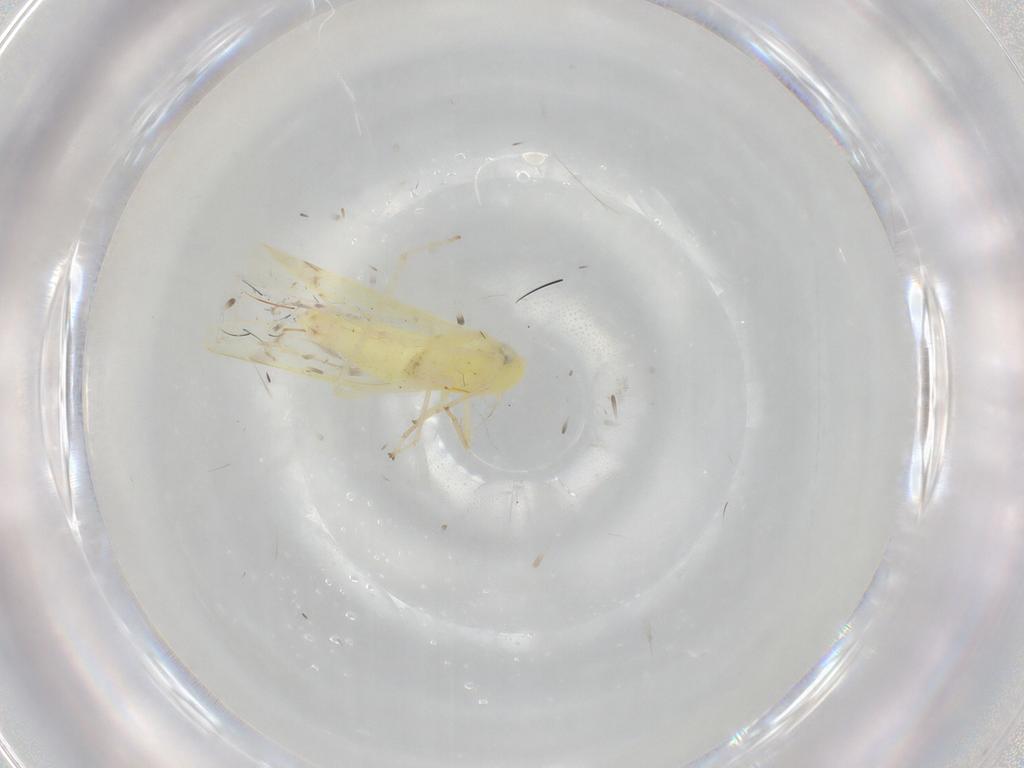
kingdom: Animalia
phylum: Arthropoda
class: Insecta
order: Hemiptera
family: Cicadellidae
